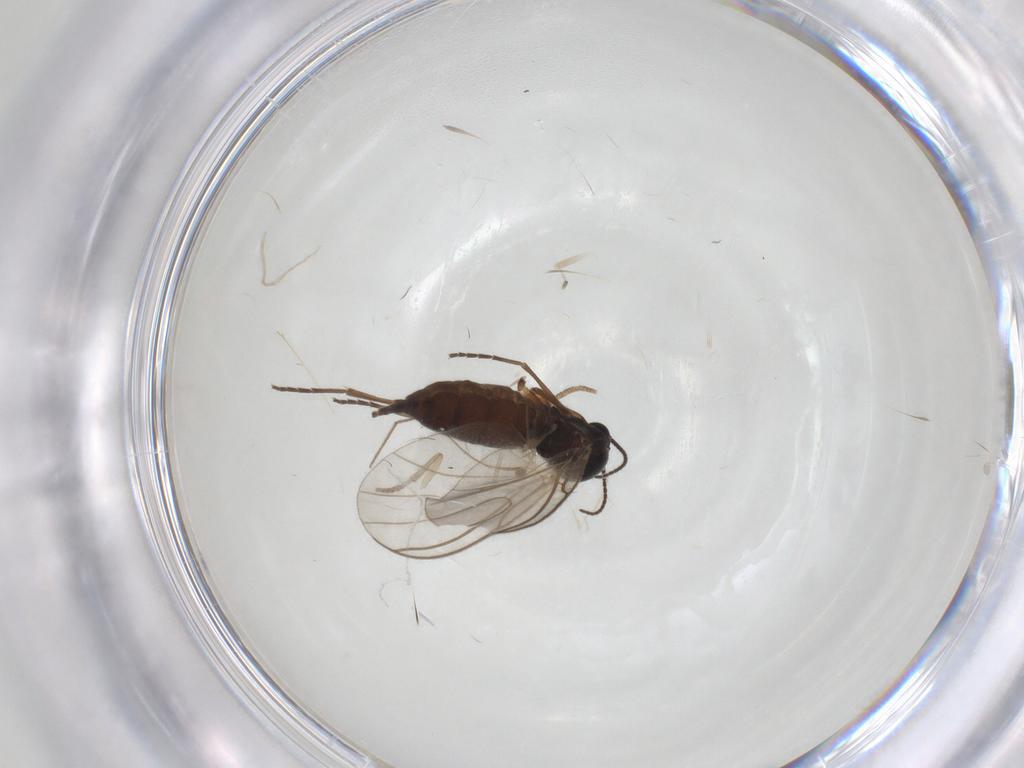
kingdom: Animalia
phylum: Arthropoda
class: Insecta
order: Diptera
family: Psychodidae
